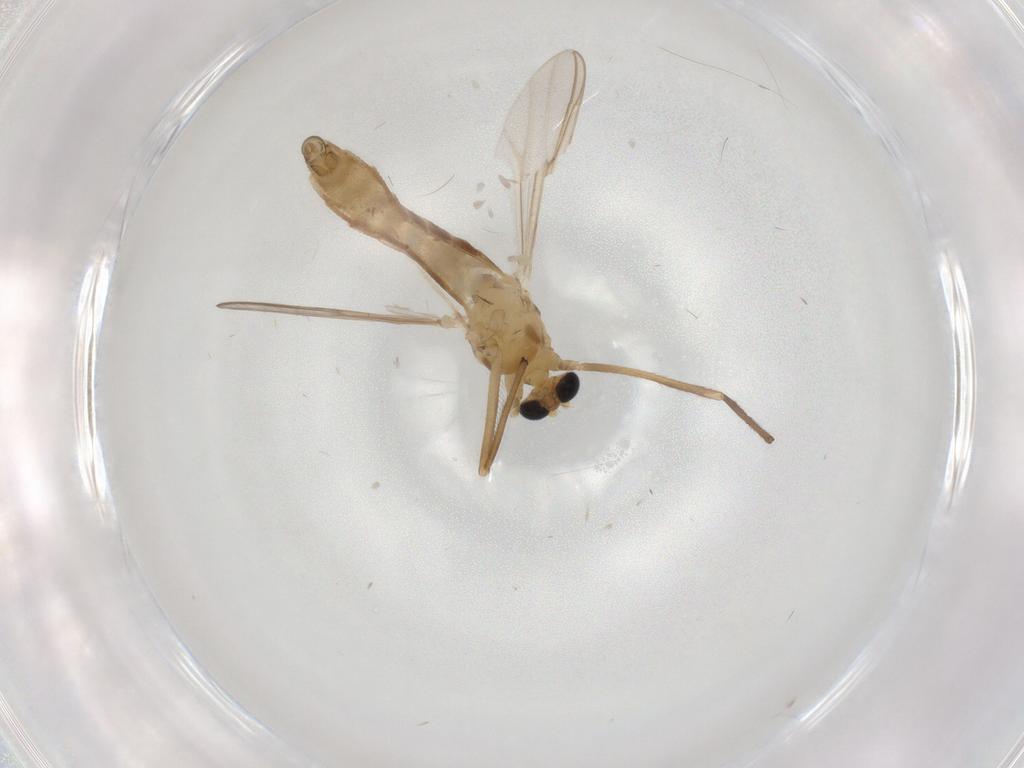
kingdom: Animalia
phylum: Arthropoda
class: Insecta
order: Diptera
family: Chironomidae
